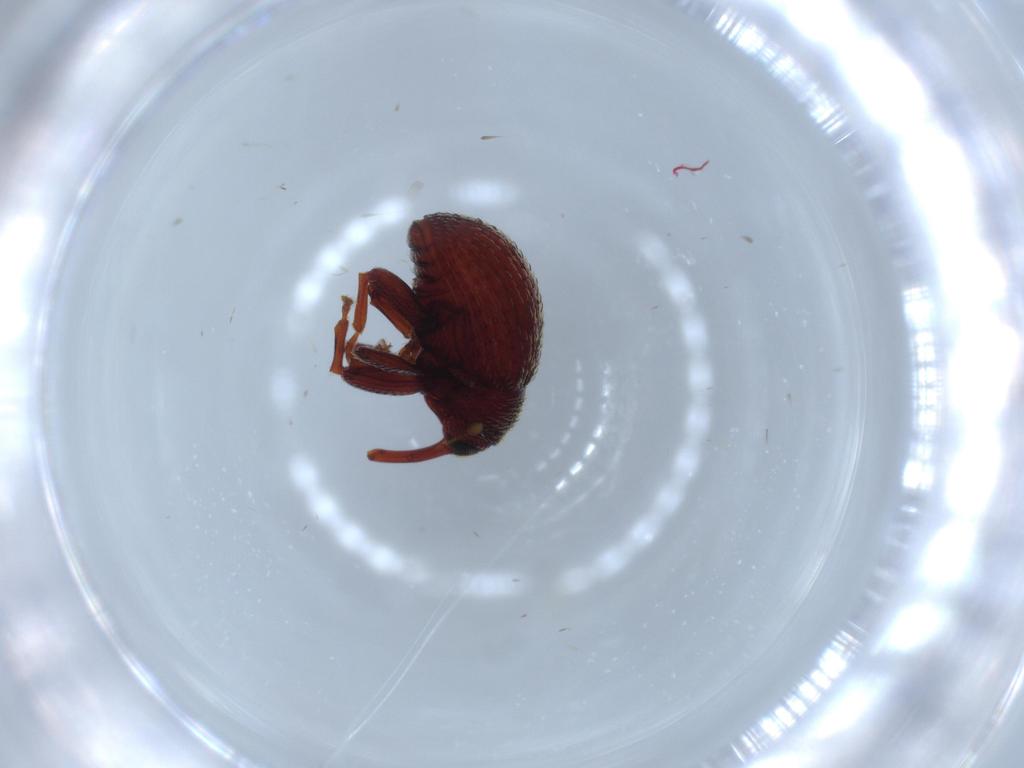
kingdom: Animalia
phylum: Arthropoda
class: Insecta
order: Coleoptera
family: Curculionidae
